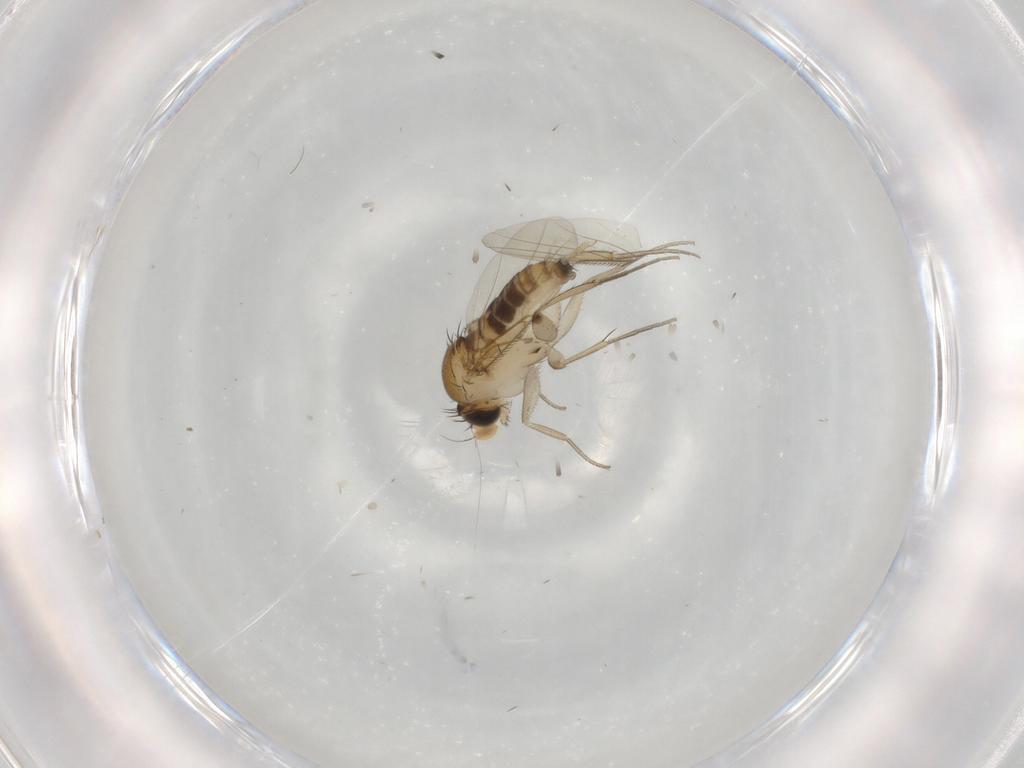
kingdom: Animalia
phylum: Arthropoda
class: Insecta
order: Diptera
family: Phoridae
